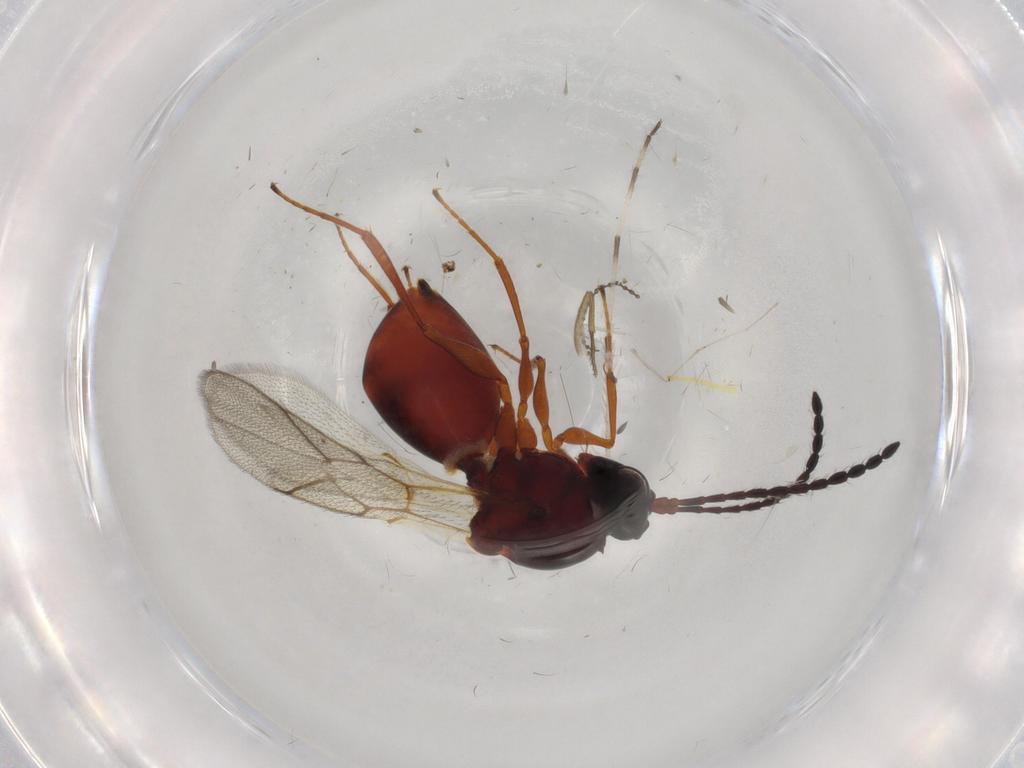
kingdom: Animalia
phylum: Arthropoda
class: Insecta
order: Hymenoptera
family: Figitidae
